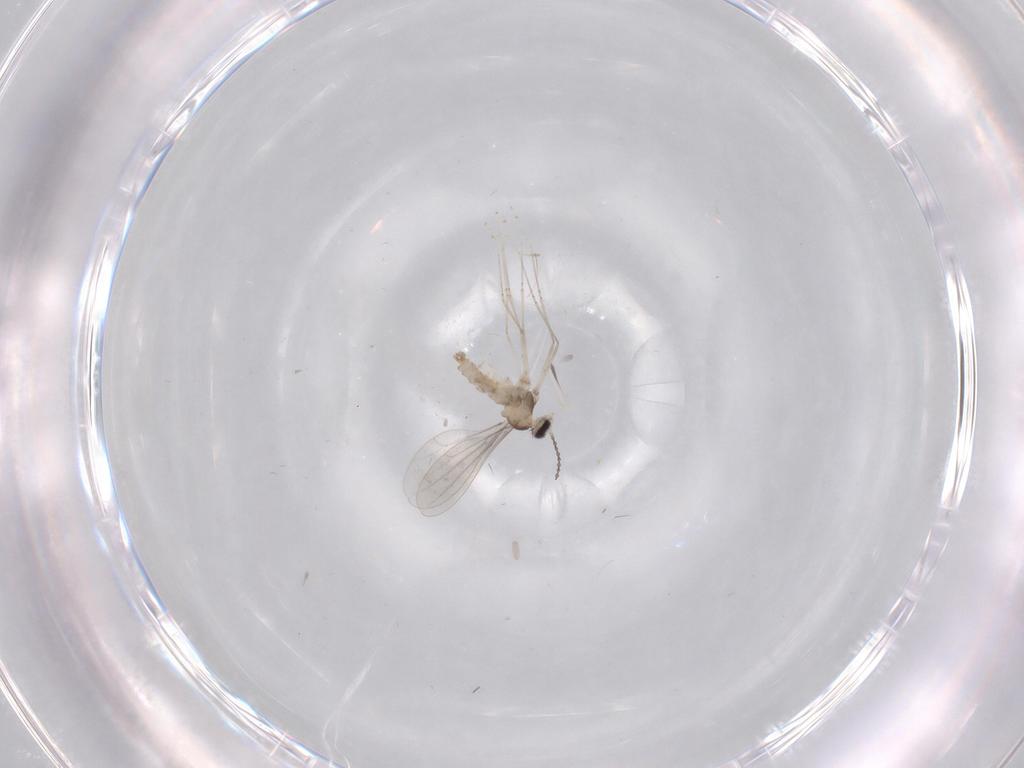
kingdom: Animalia
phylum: Arthropoda
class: Insecta
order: Diptera
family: Cecidomyiidae
